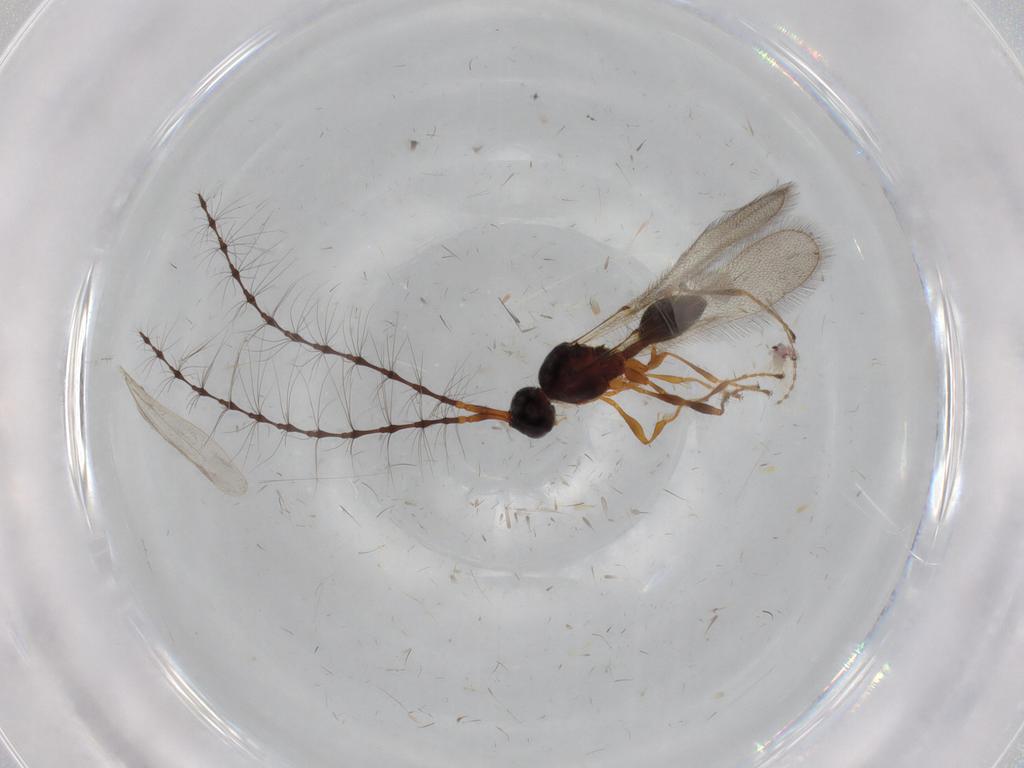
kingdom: Animalia
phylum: Arthropoda
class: Insecta
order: Hymenoptera
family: Diapriidae
